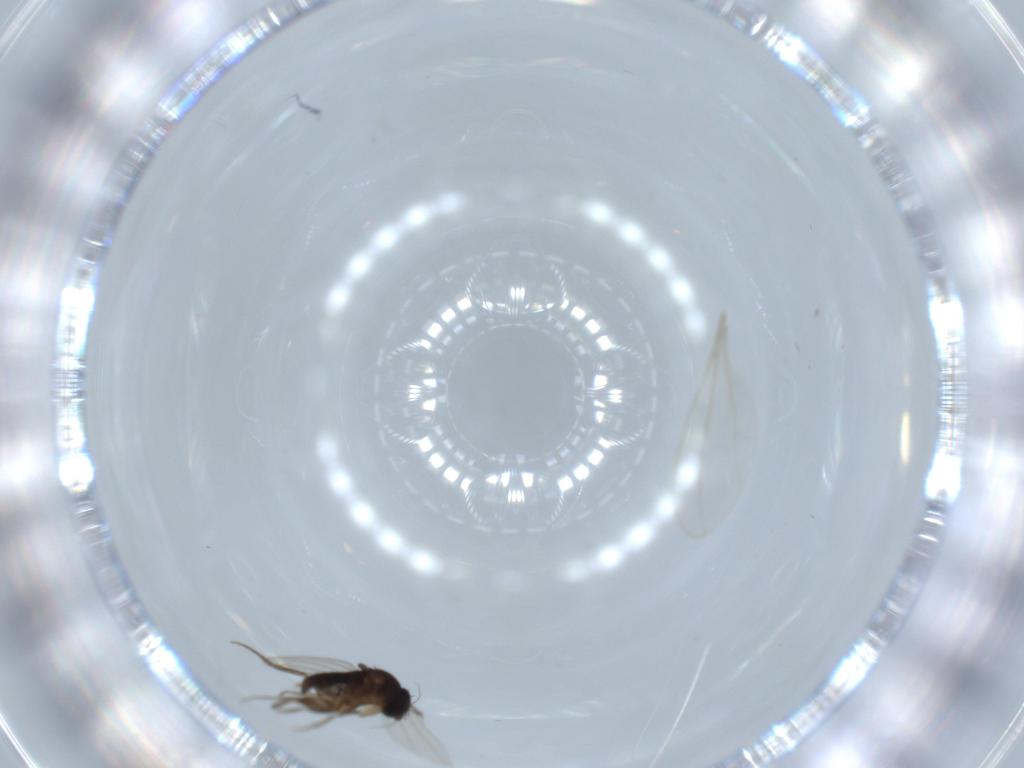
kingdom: Animalia
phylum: Arthropoda
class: Insecta
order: Diptera
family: Phoridae
